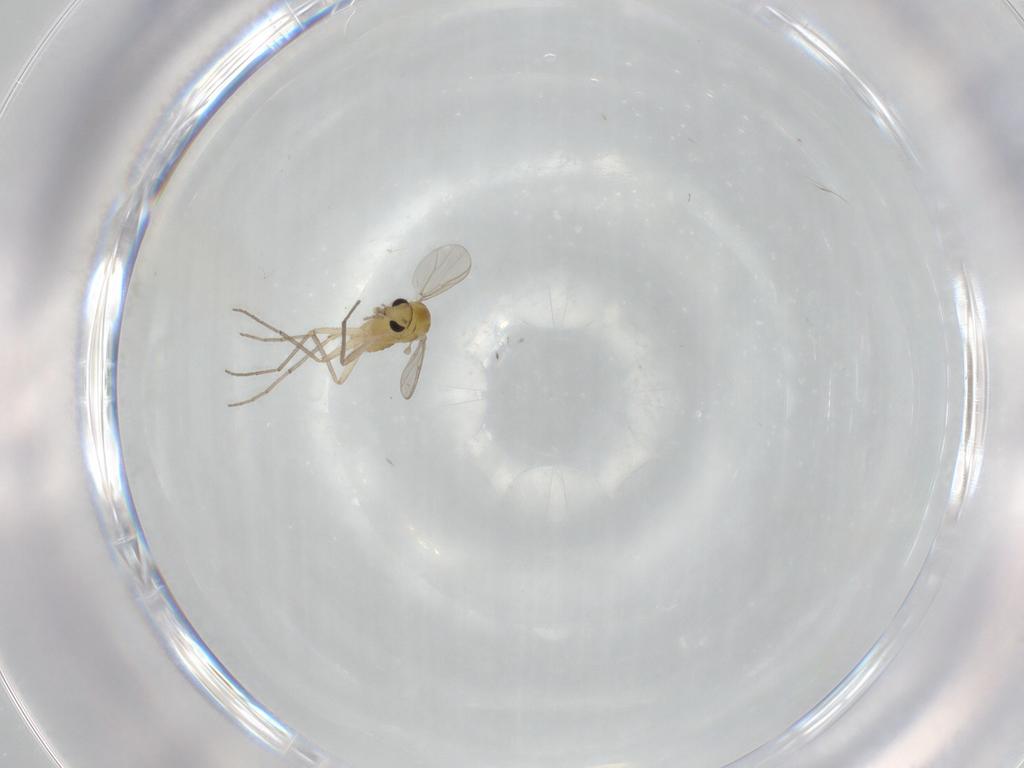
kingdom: Animalia
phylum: Arthropoda
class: Insecta
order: Diptera
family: Chironomidae
